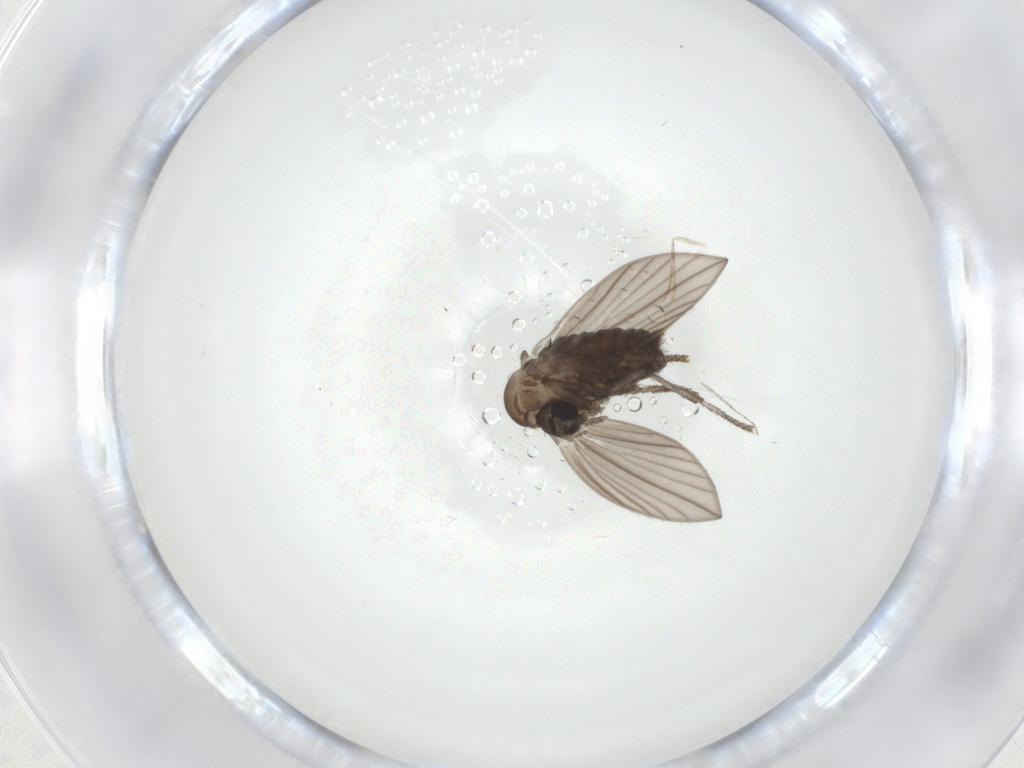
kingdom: Animalia
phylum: Arthropoda
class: Insecta
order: Diptera
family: Psychodidae
